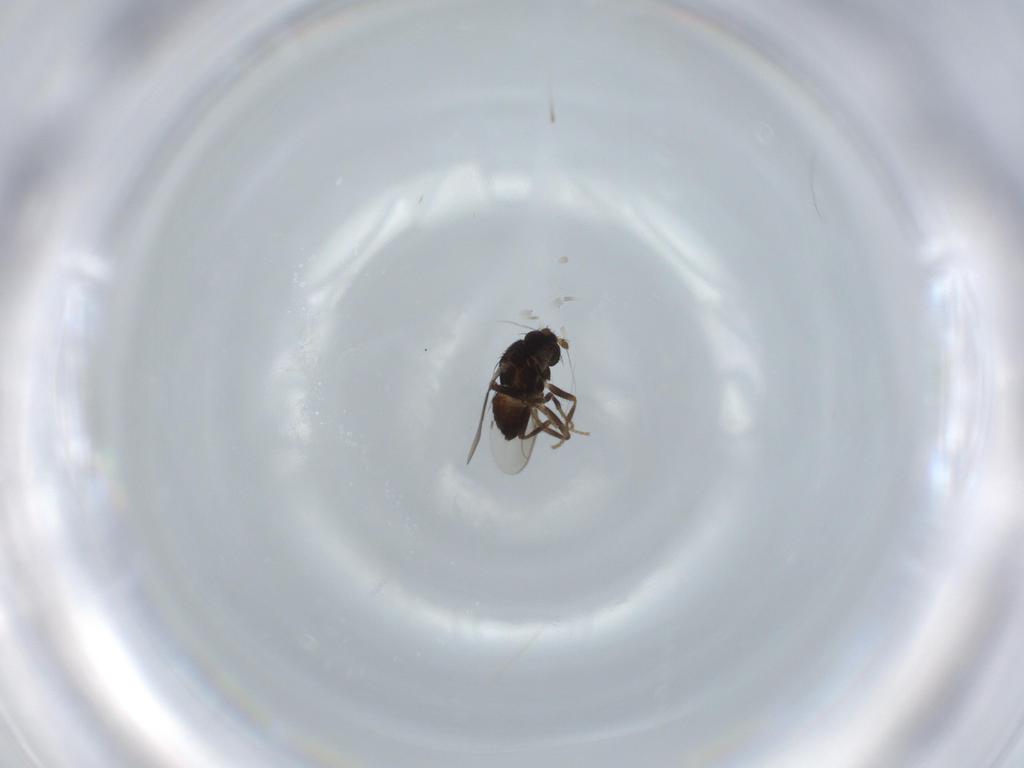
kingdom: Animalia
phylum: Arthropoda
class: Insecta
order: Diptera
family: Sphaeroceridae
